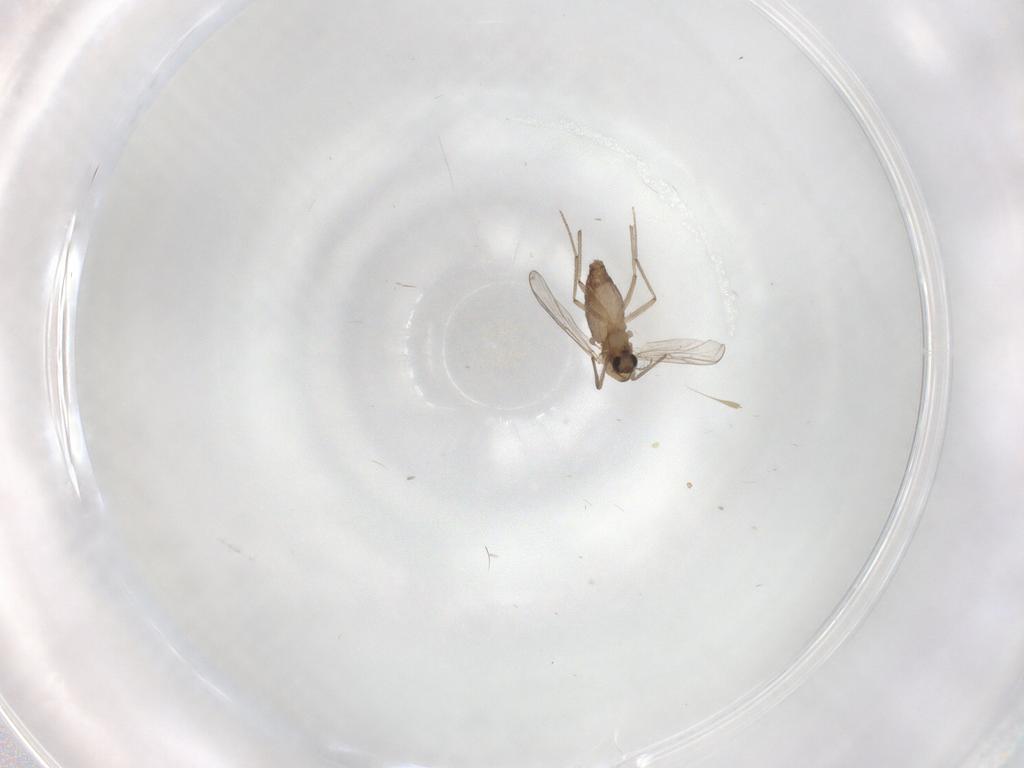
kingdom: Animalia
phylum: Arthropoda
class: Insecta
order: Diptera
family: Chironomidae
